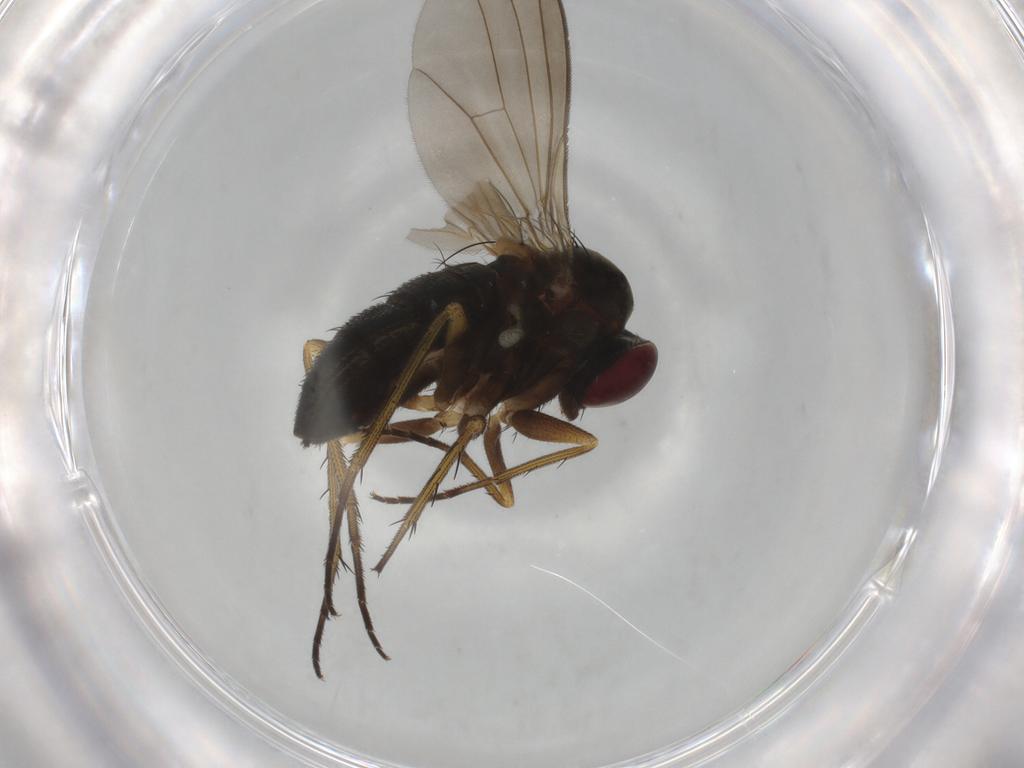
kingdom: Animalia
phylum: Arthropoda
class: Insecta
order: Diptera
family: Dolichopodidae
